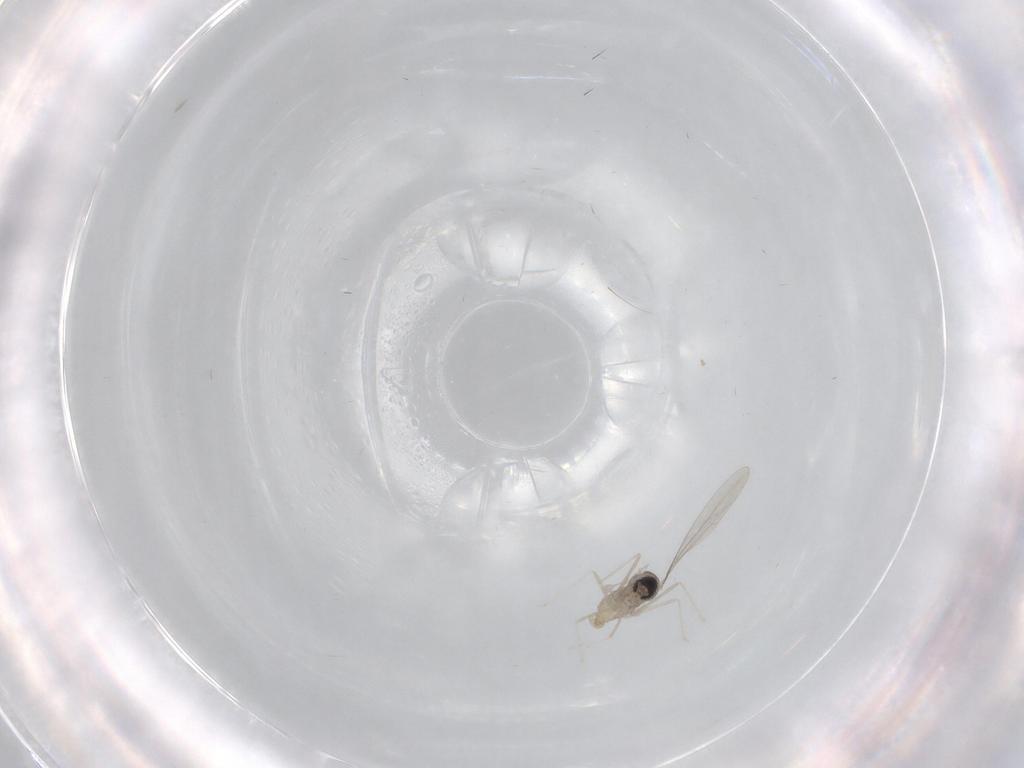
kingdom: Animalia
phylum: Arthropoda
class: Insecta
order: Diptera
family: Cecidomyiidae
